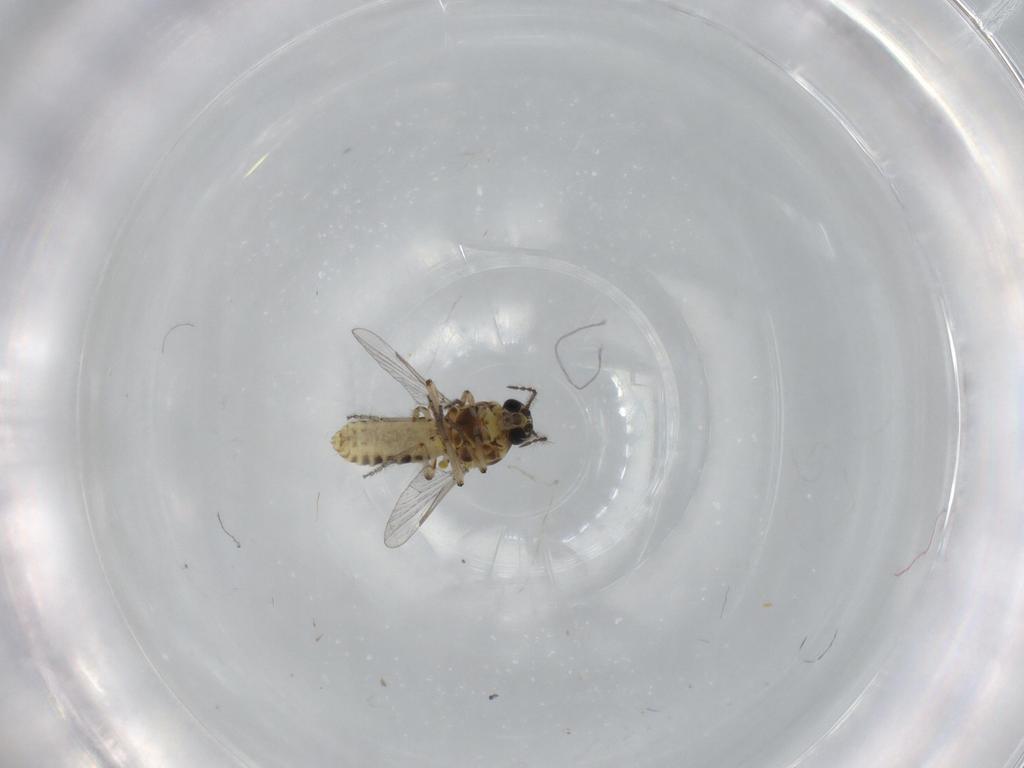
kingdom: Animalia
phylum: Arthropoda
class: Insecta
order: Diptera
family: Ceratopogonidae
